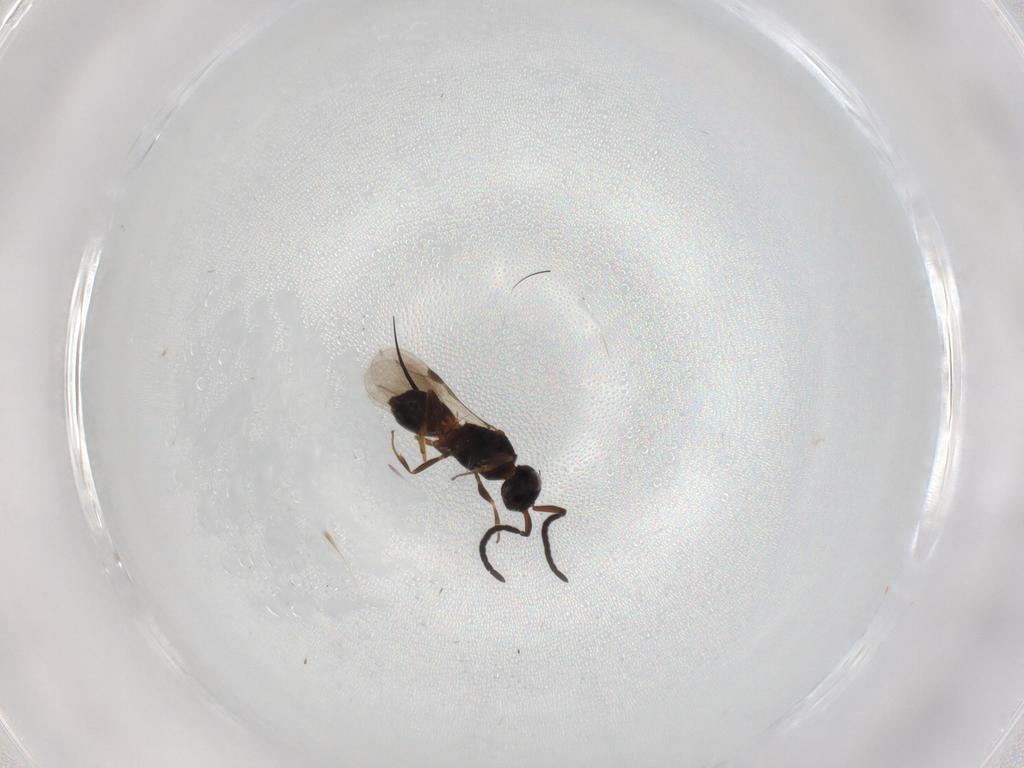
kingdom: Animalia
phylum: Arthropoda
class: Insecta
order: Hymenoptera
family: Megaspilidae
